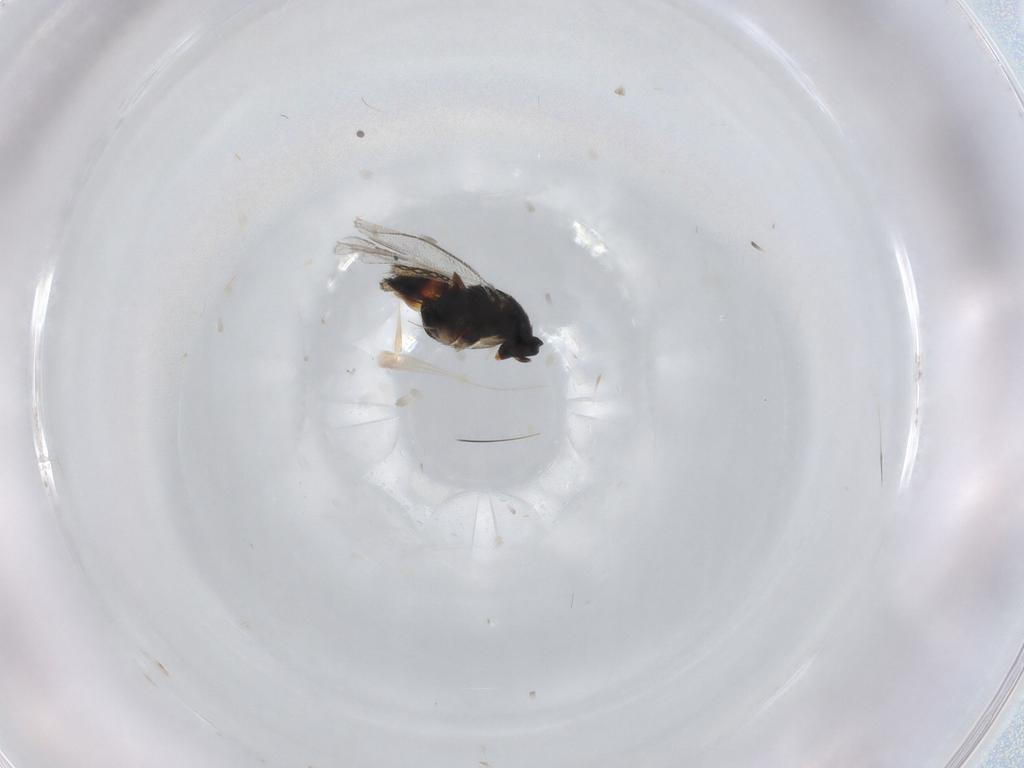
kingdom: Animalia
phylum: Arthropoda
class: Insecta
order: Hymenoptera
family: Eulophidae
